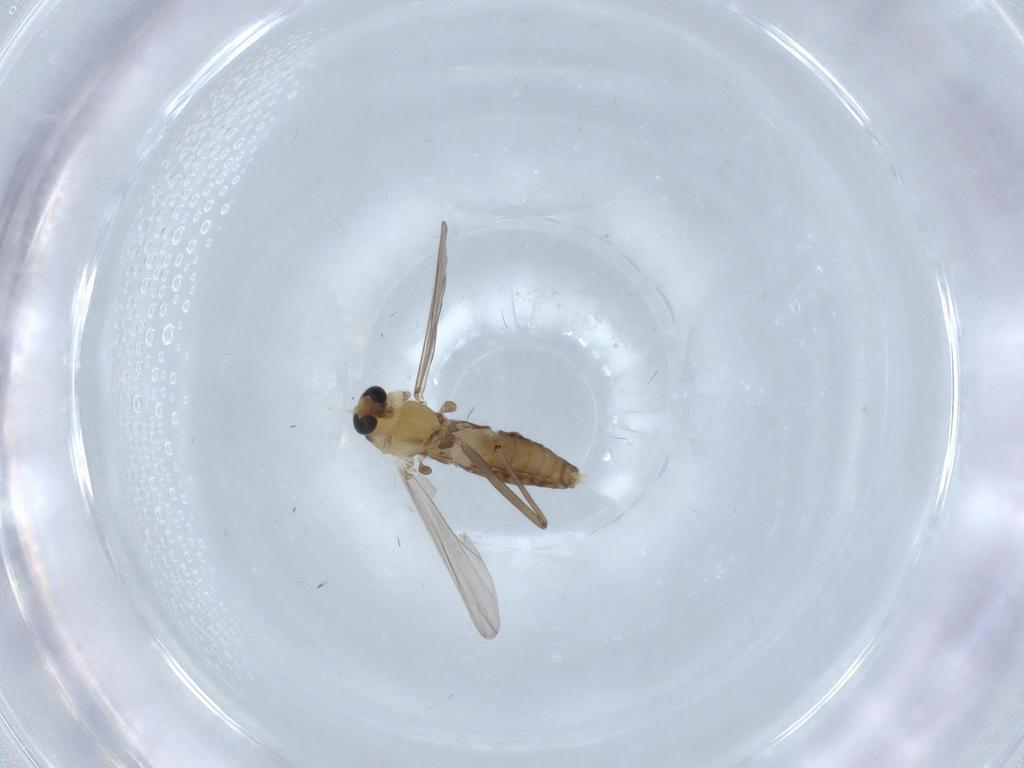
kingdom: Animalia
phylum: Arthropoda
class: Insecta
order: Diptera
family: Chironomidae
